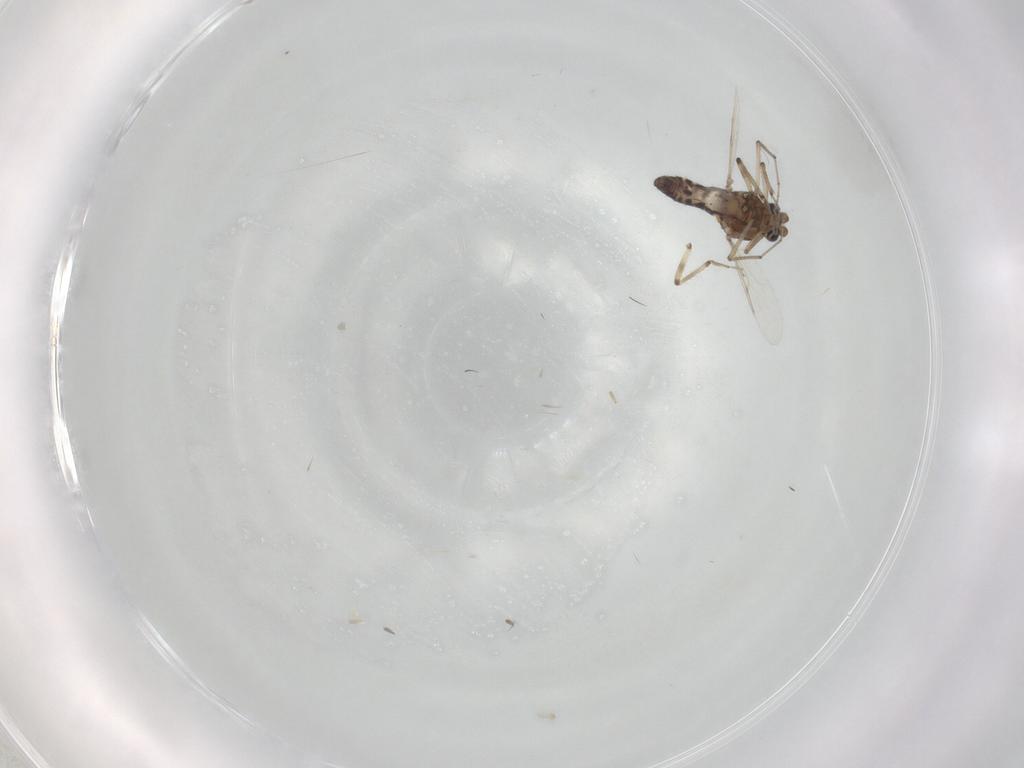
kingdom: Animalia
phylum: Arthropoda
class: Insecta
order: Diptera
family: Ceratopogonidae
